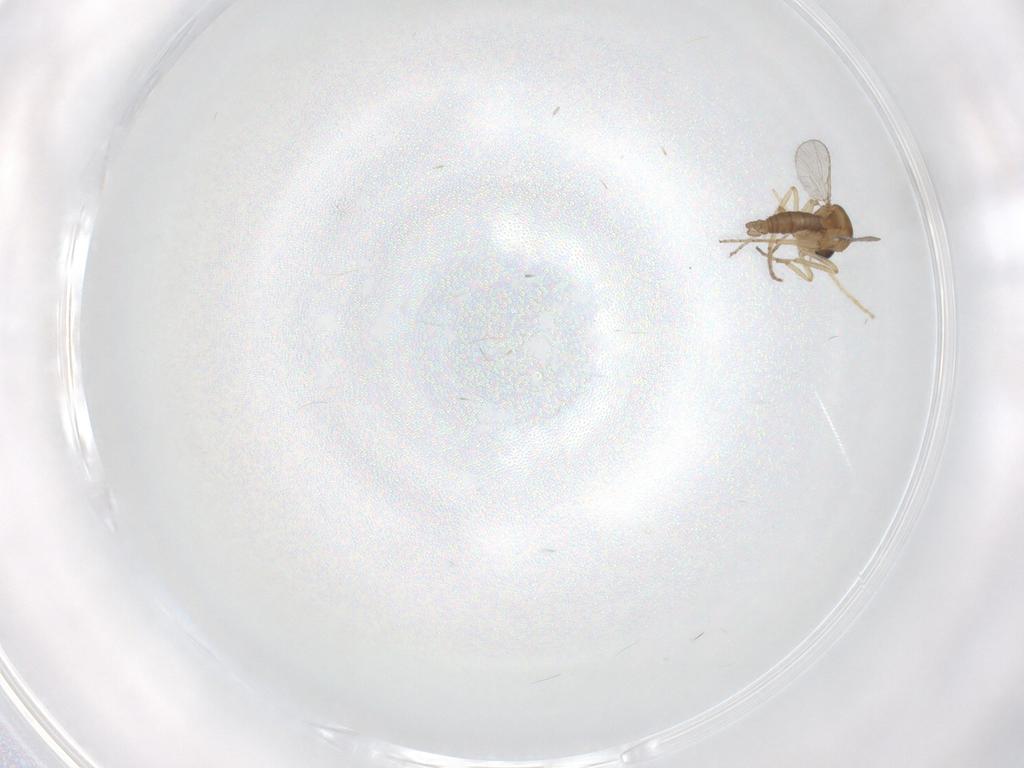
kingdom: Animalia
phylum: Arthropoda
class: Insecta
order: Diptera
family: Chironomidae
